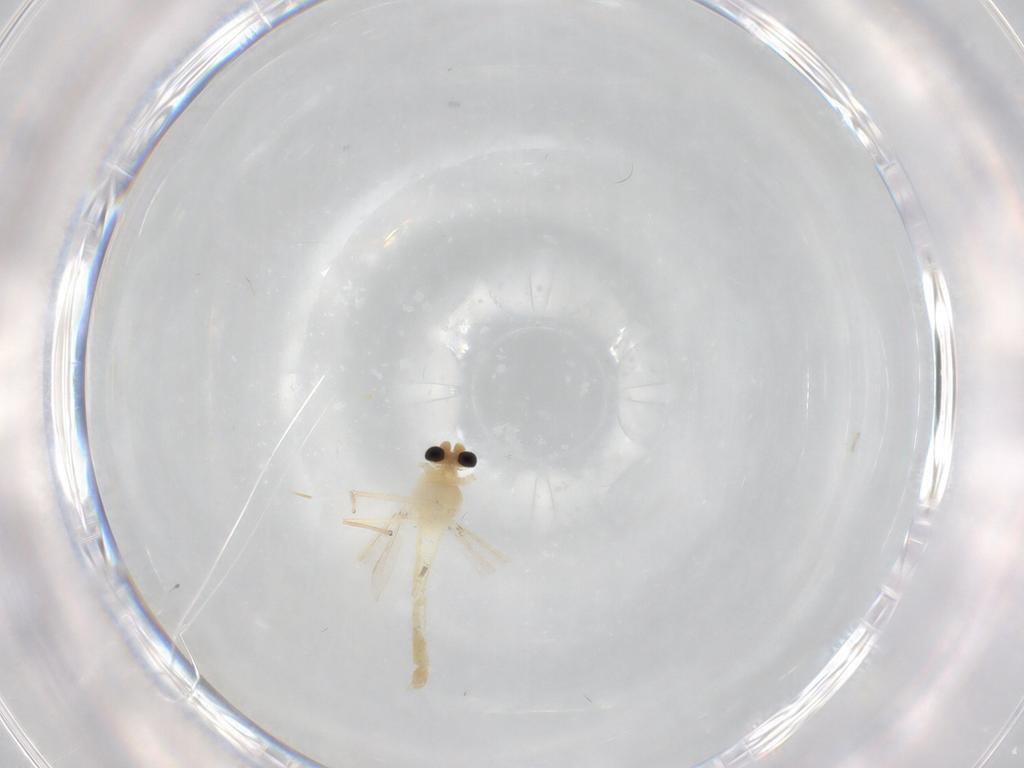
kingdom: Animalia
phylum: Arthropoda
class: Insecta
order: Diptera
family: Chironomidae
